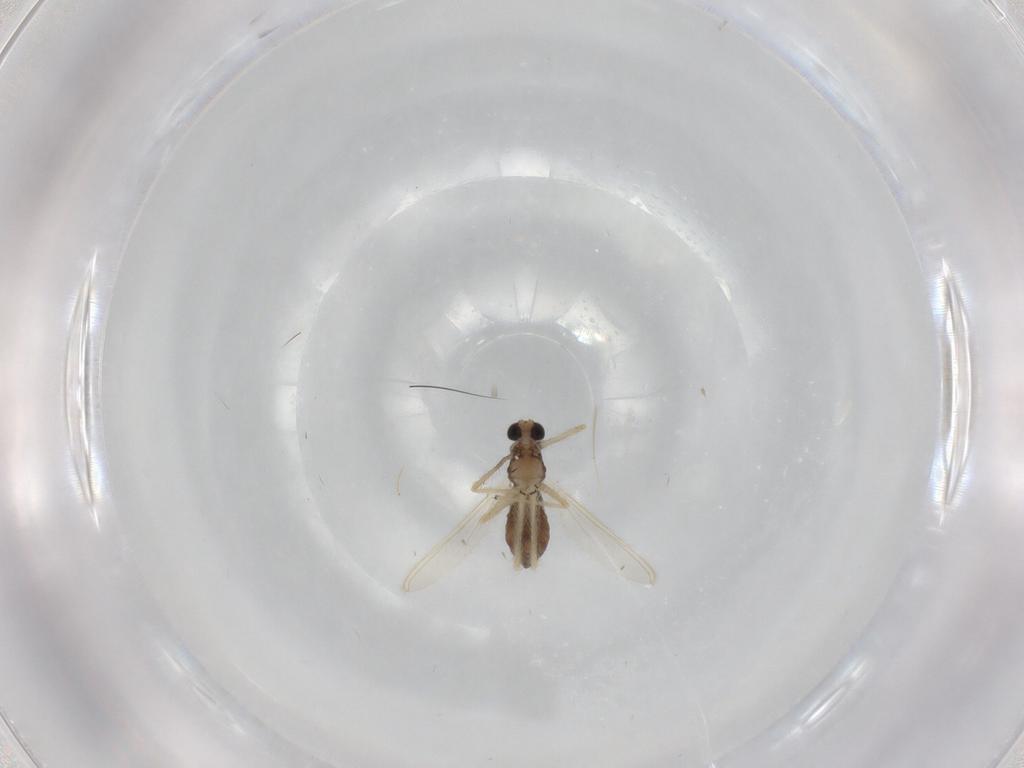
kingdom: Animalia
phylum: Arthropoda
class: Insecta
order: Diptera
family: Chironomidae
